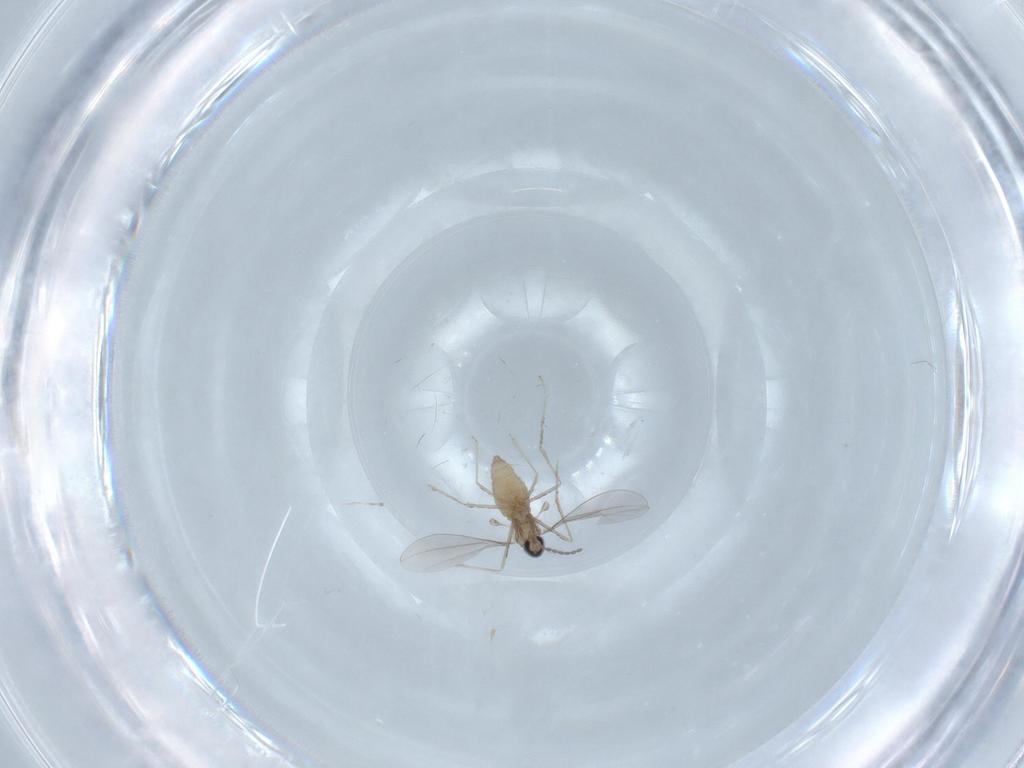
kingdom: Animalia
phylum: Arthropoda
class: Insecta
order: Diptera
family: Cecidomyiidae
